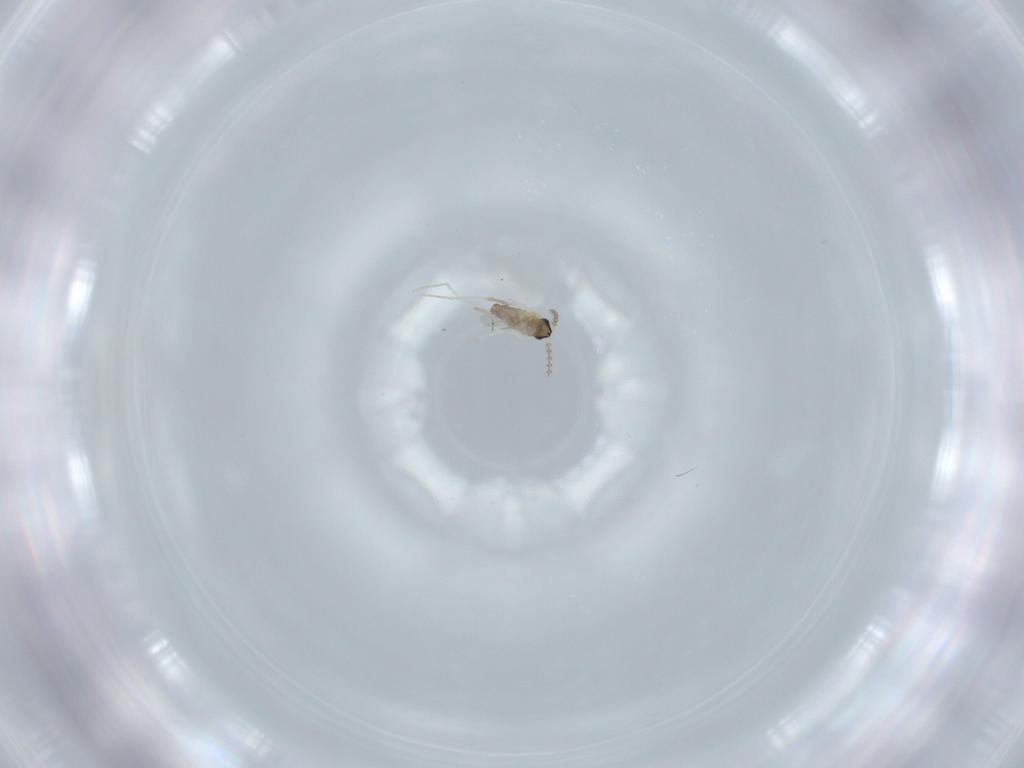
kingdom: Animalia
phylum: Arthropoda
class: Insecta
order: Diptera
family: Cecidomyiidae
